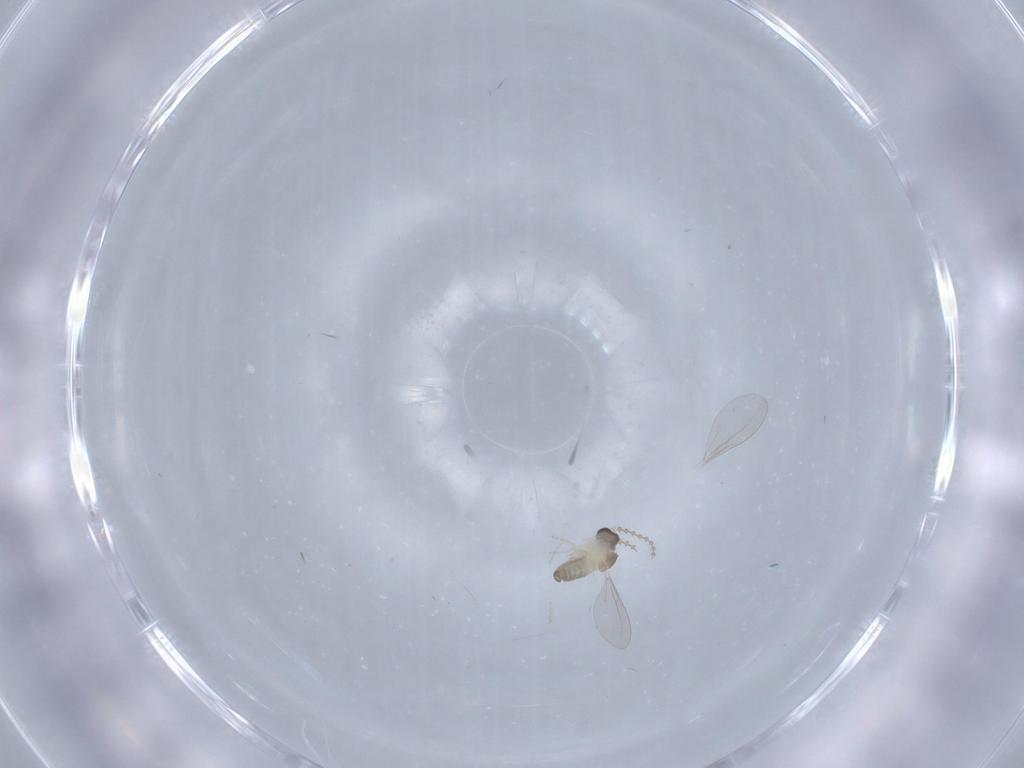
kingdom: Animalia
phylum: Arthropoda
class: Insecta
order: Diptera
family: Cecidomyiidae
